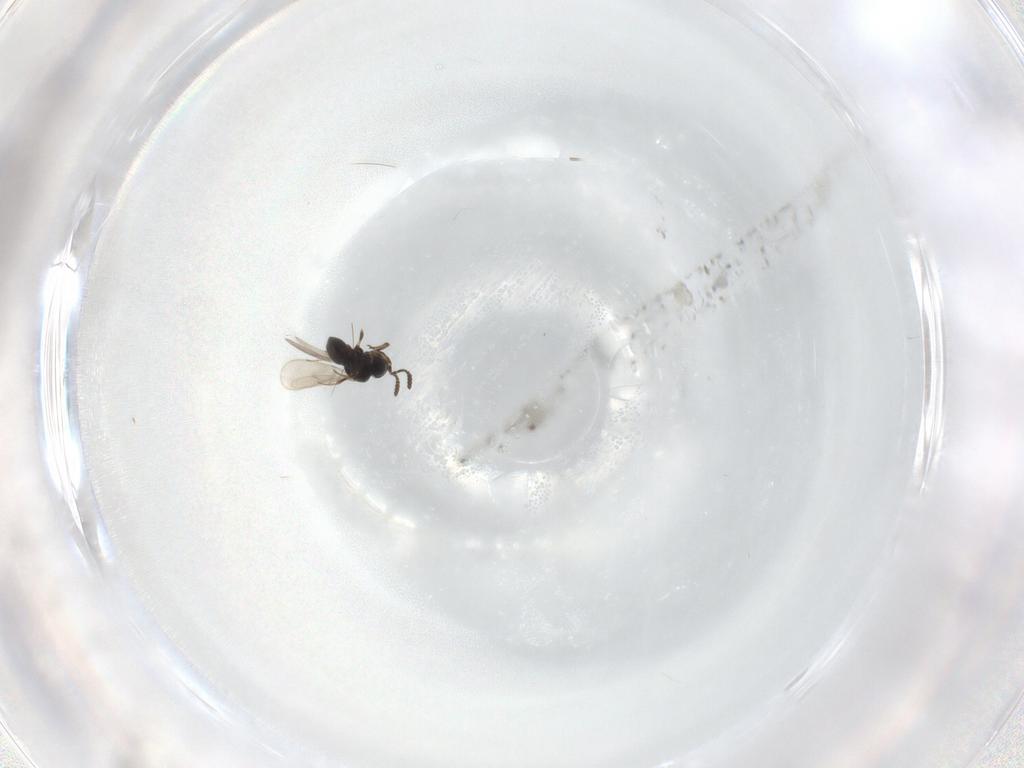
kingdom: Animalia
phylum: Arthropoda
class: Insecta
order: Hymenoptera
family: Scelionidae
